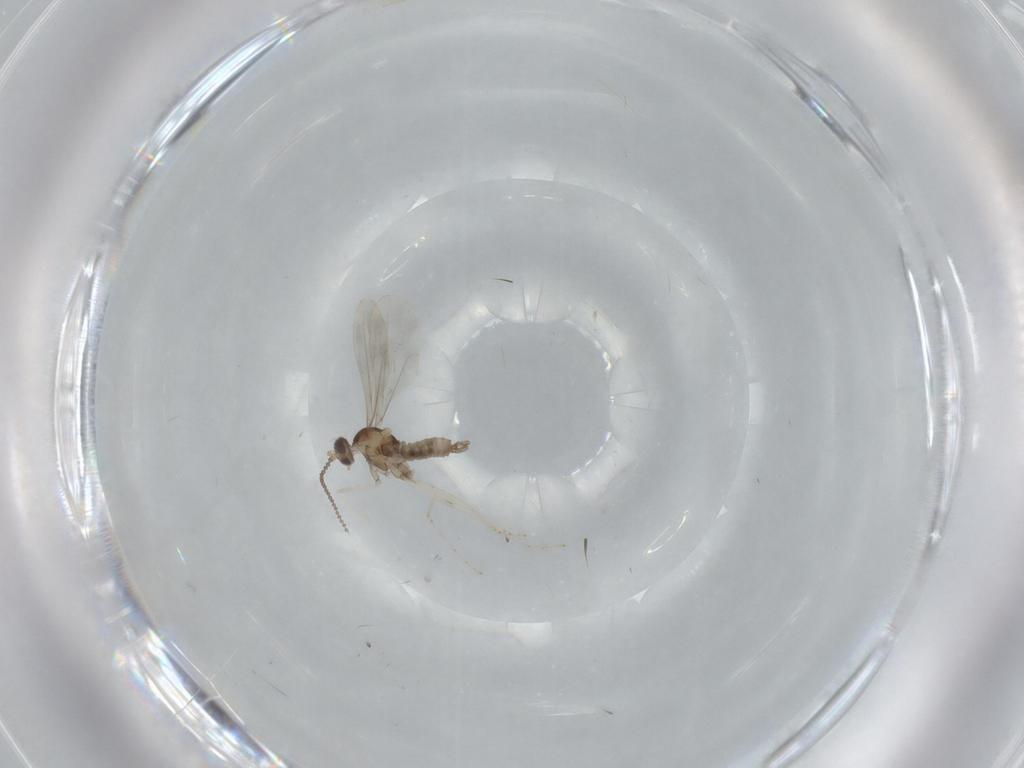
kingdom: Animalia
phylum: Arthropoda
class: Insecta
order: Diptera
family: Cecidomyiidae
